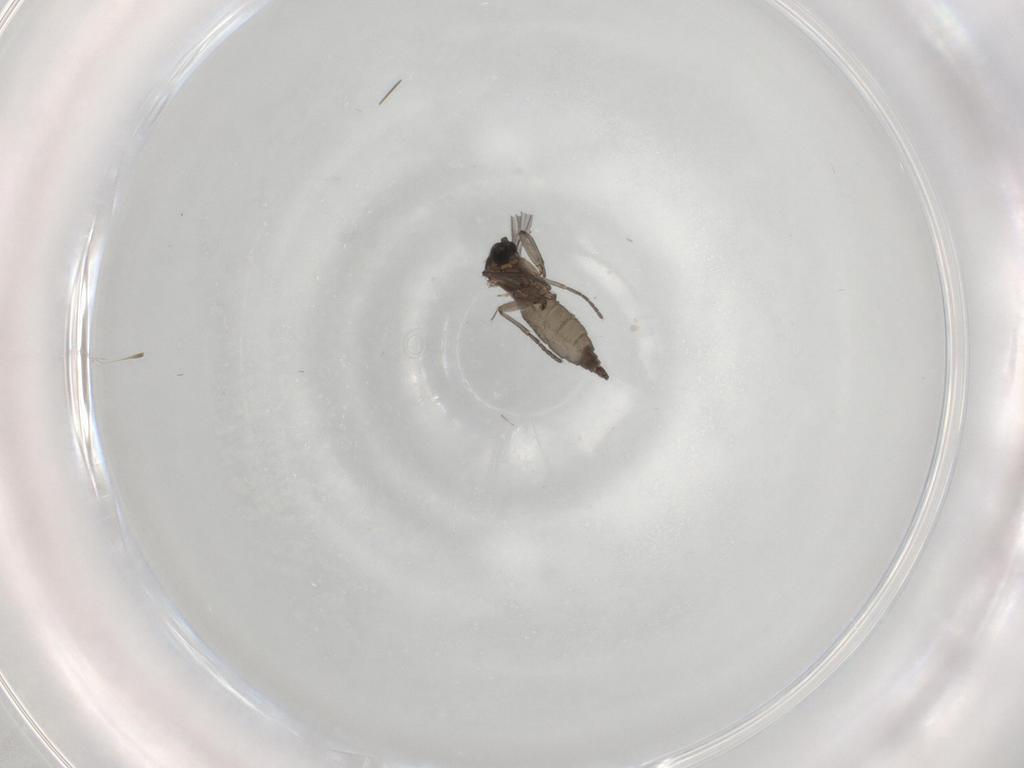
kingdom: Animalia
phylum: Arthropoda
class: Insecta
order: Diptera
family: Sciaridae
